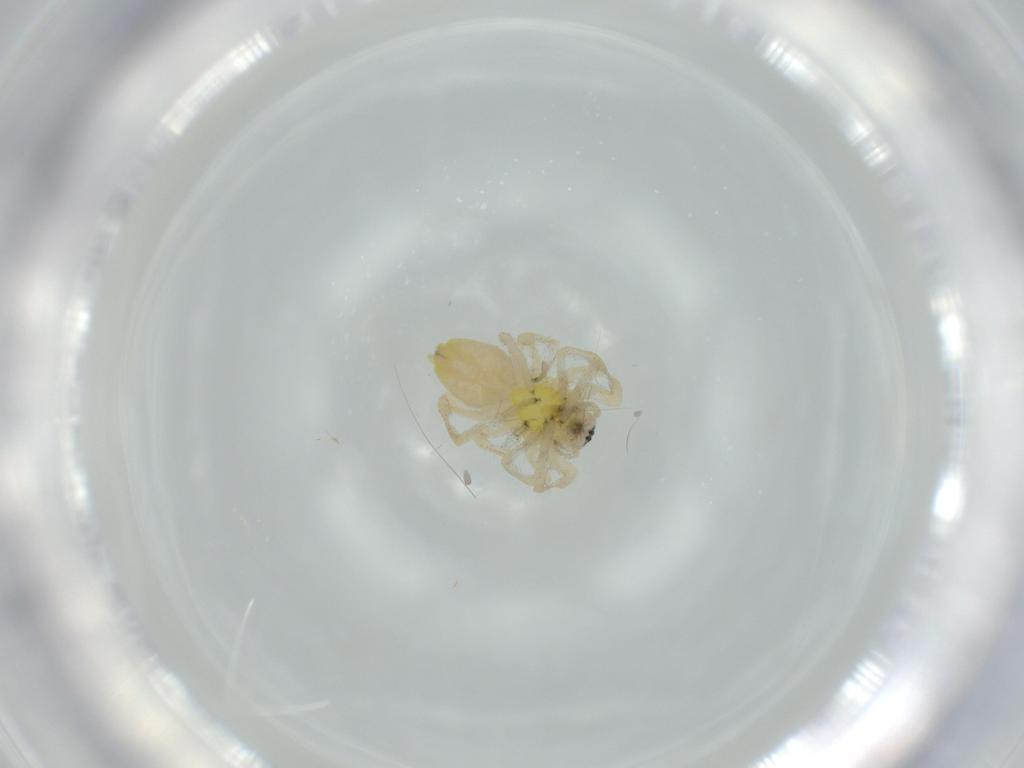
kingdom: Animalia
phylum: Arthropoda
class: Arachnida
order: Araneae
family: Anyphaenidae
